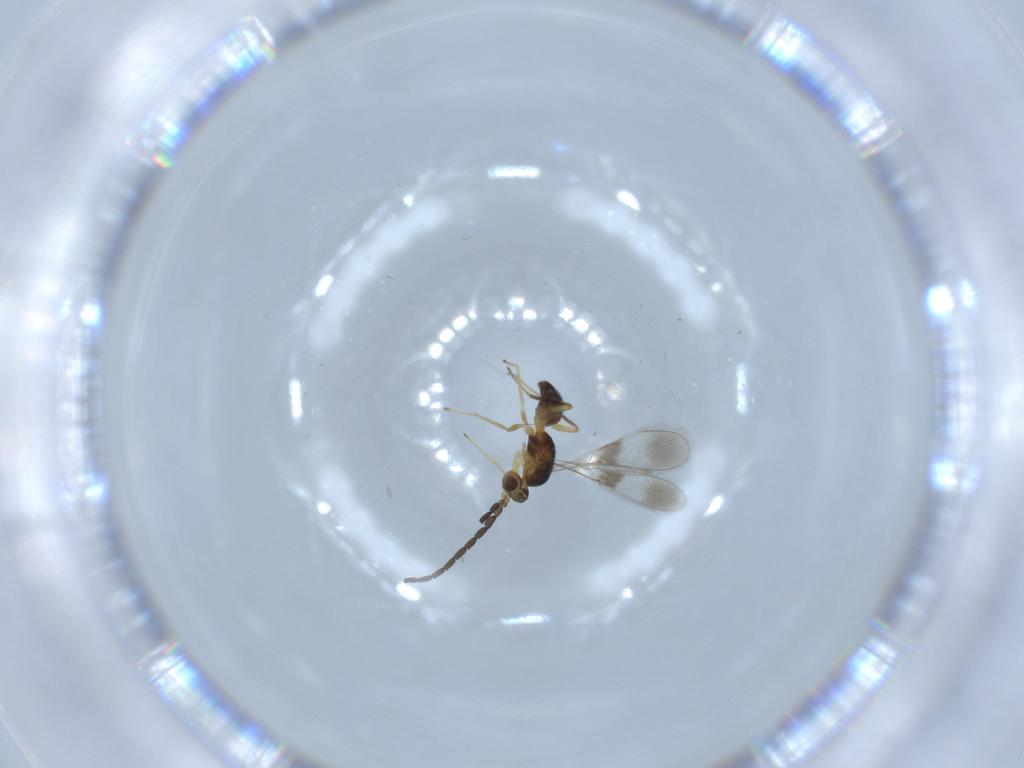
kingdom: Animalia
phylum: Arthropoda
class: Insecta
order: Hymenoptera
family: Mymaridae
